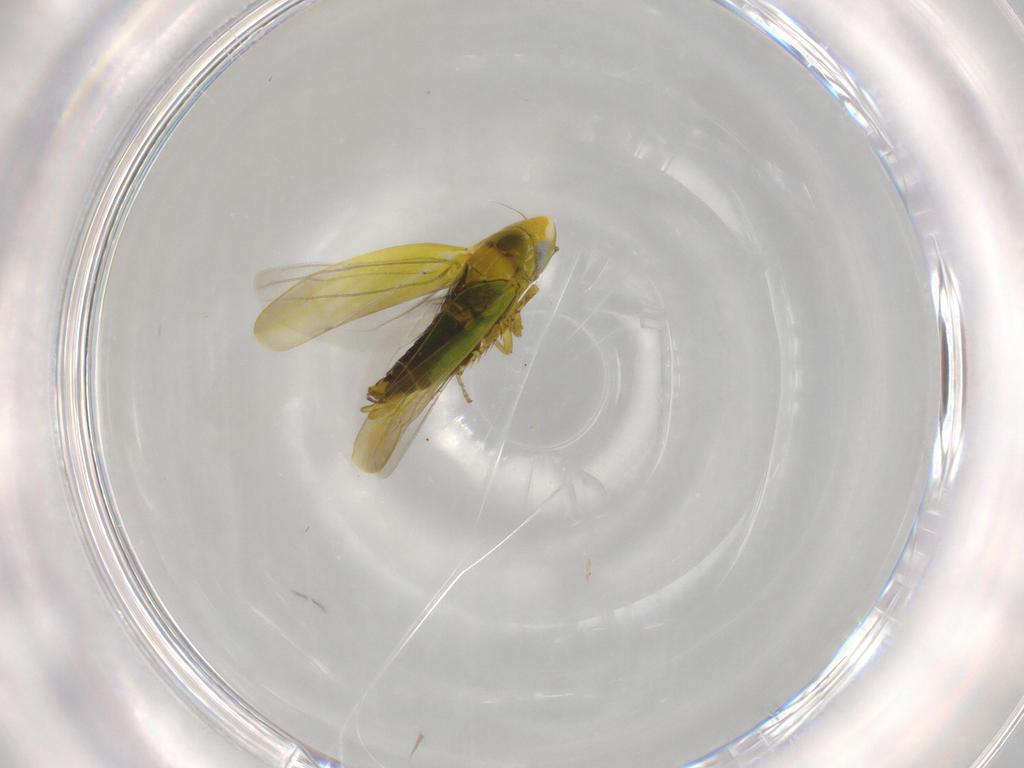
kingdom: Animalia
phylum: Arthropoda
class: Insecta
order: Hemiptera
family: Cicadellidae
